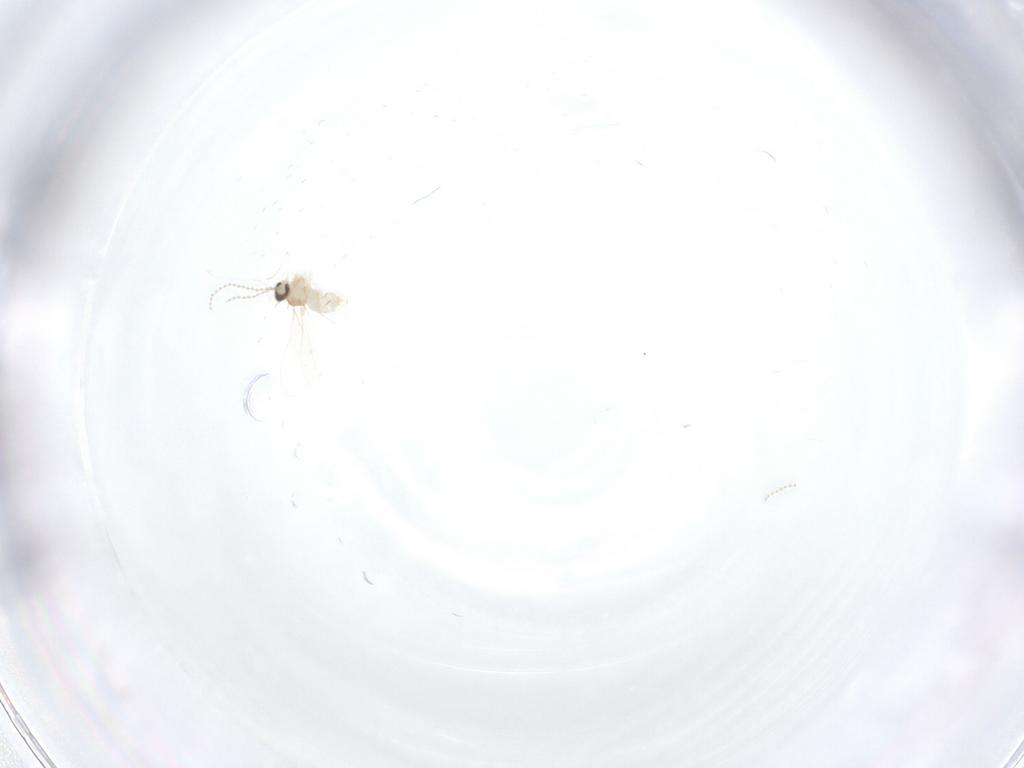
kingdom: Animalia
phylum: Arthropoda
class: Insecta
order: Diptera
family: Cecidomyiidae
